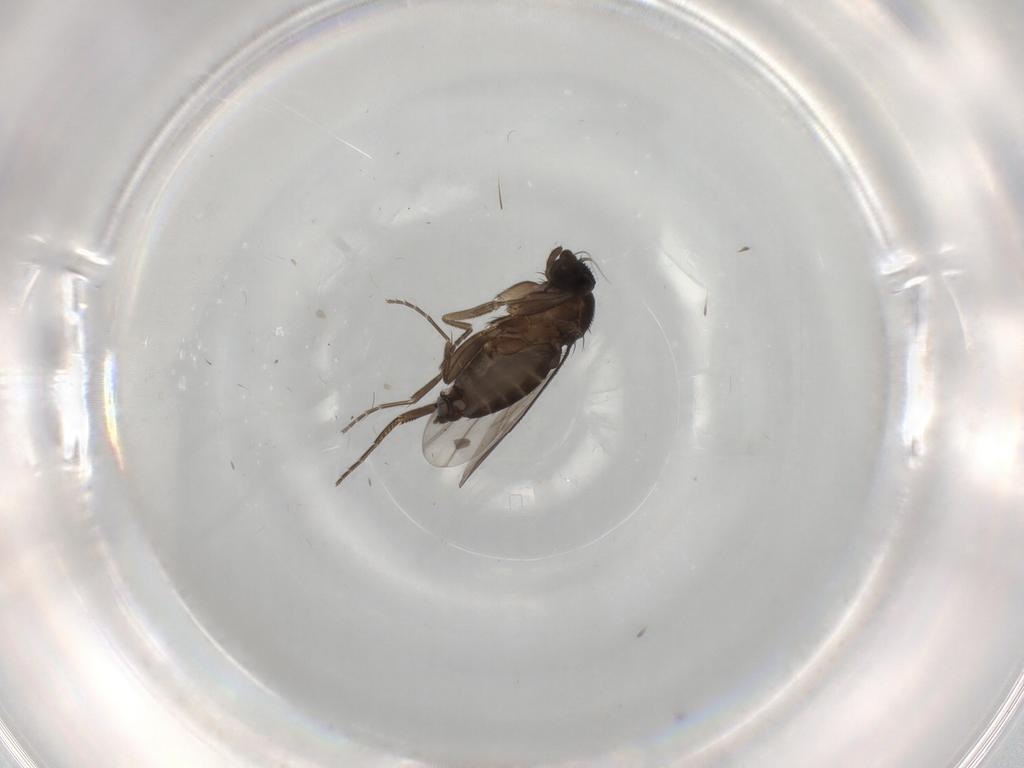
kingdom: Animalia
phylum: Arthropoda
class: Insecta
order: Diptera
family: Phoridae
